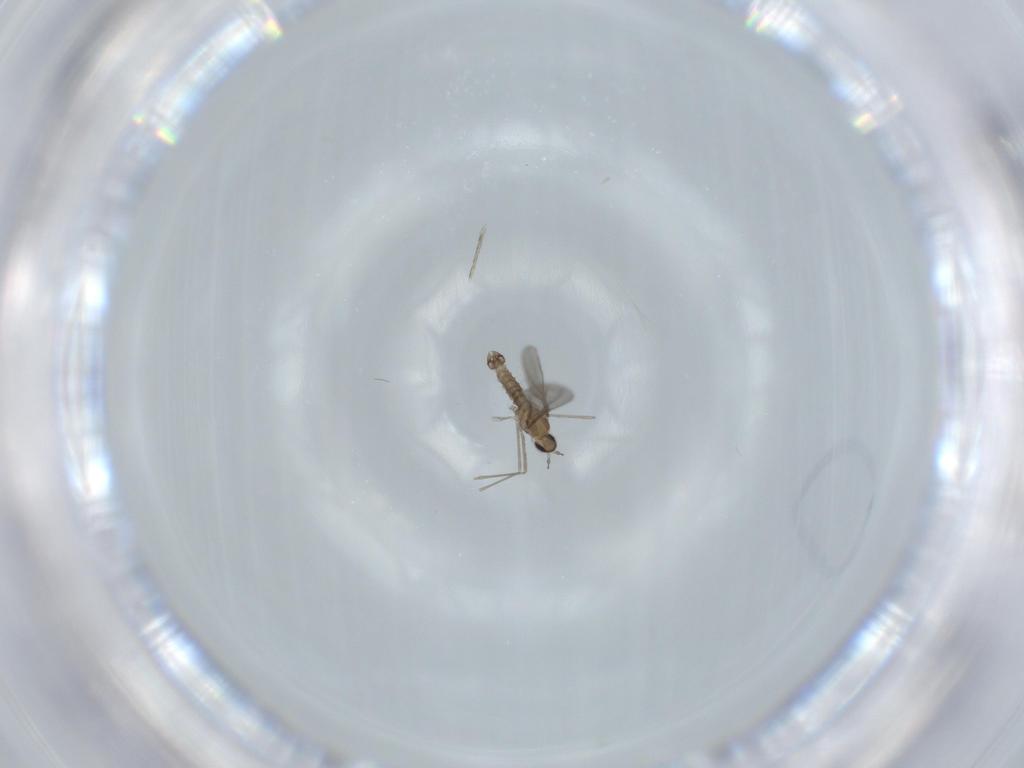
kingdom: Animalia
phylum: Arthropoda
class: Insecta
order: Diptera
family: Cecidomyiidae
